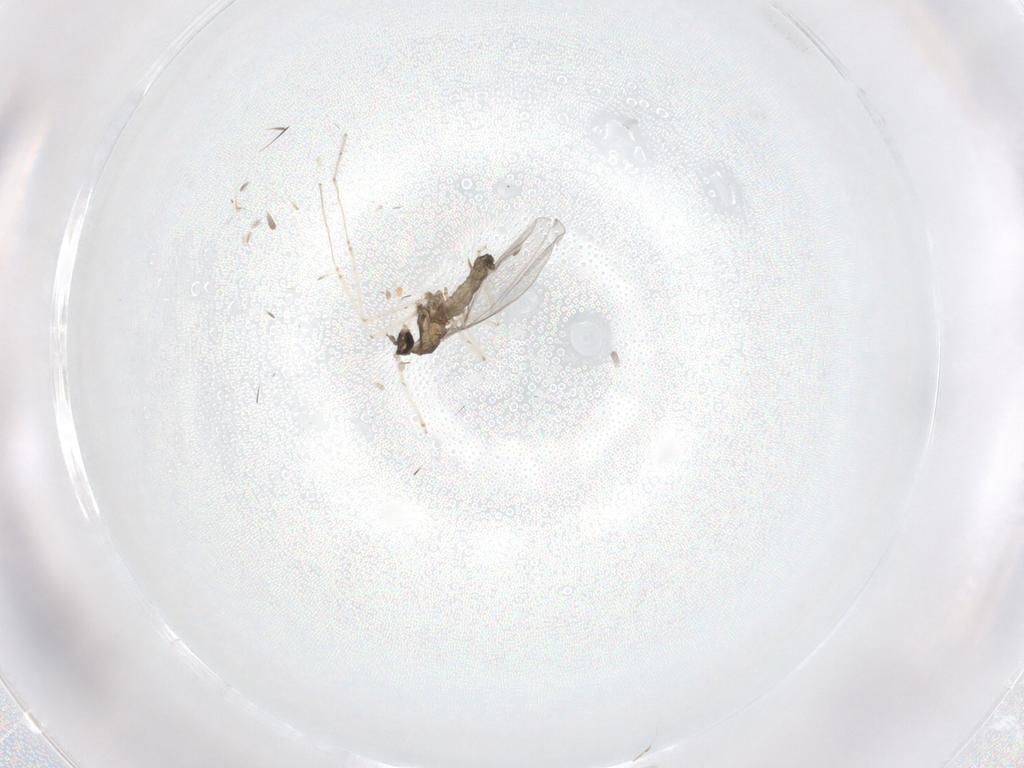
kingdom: Animalia
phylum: Arthropoda
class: Insecta
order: Diptera
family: Cecidomyiidae
